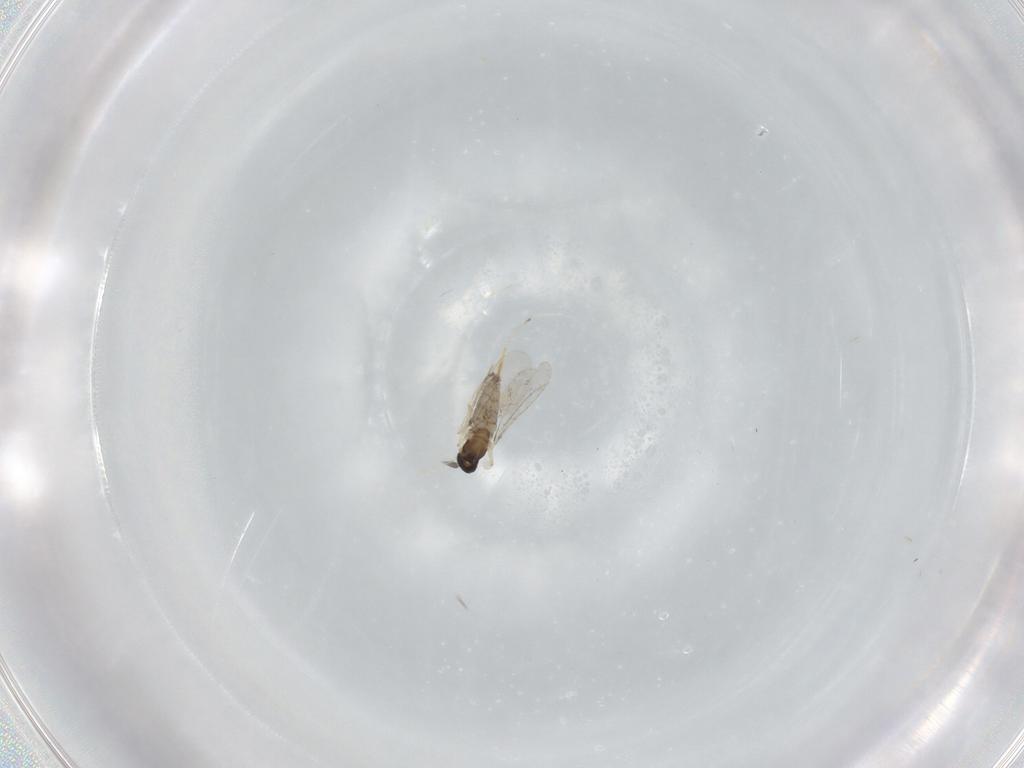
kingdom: Animalia
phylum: Arthropoda
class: Insecta
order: Diptera
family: Cecidomyiidae
